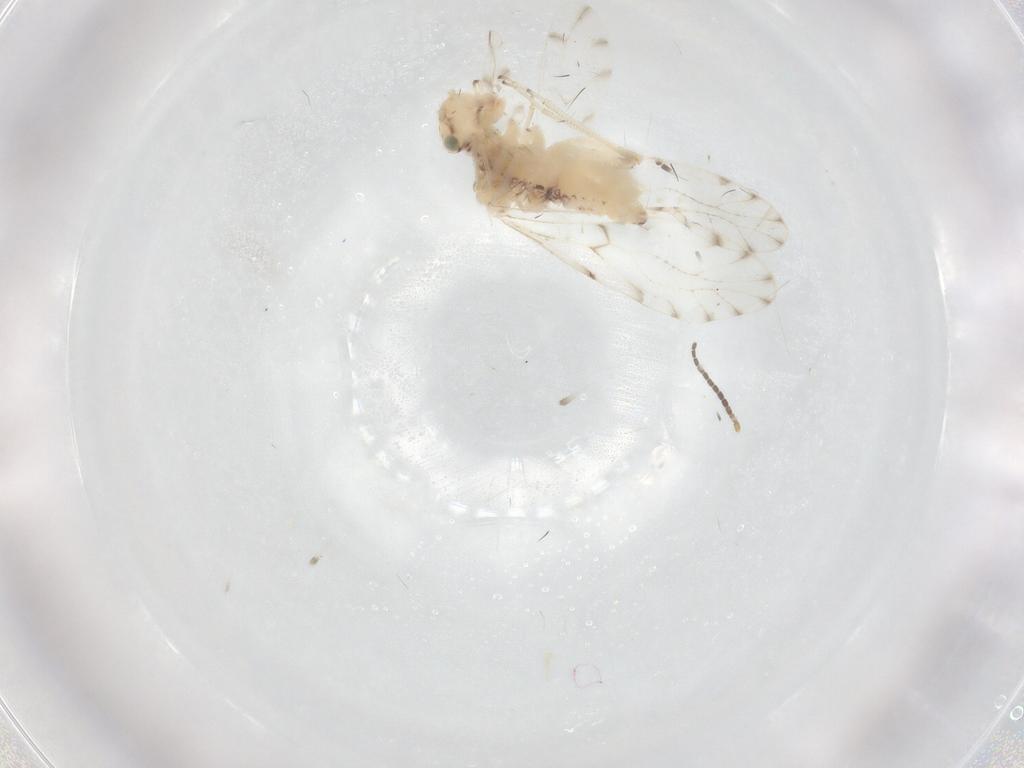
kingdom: Animalia
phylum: Arthropoda
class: Insecta
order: Psocodea
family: Ectopsocidae
